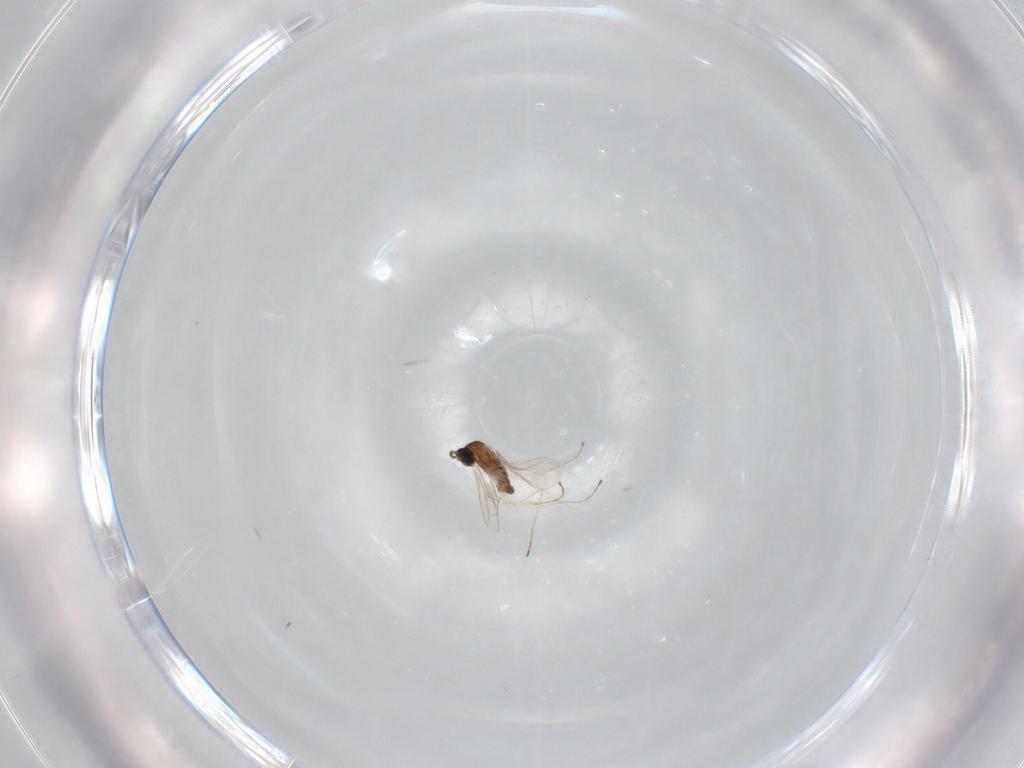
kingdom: Animalia
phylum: Arthropoda
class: Insecta
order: Diptera
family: Cecidomyiidae
